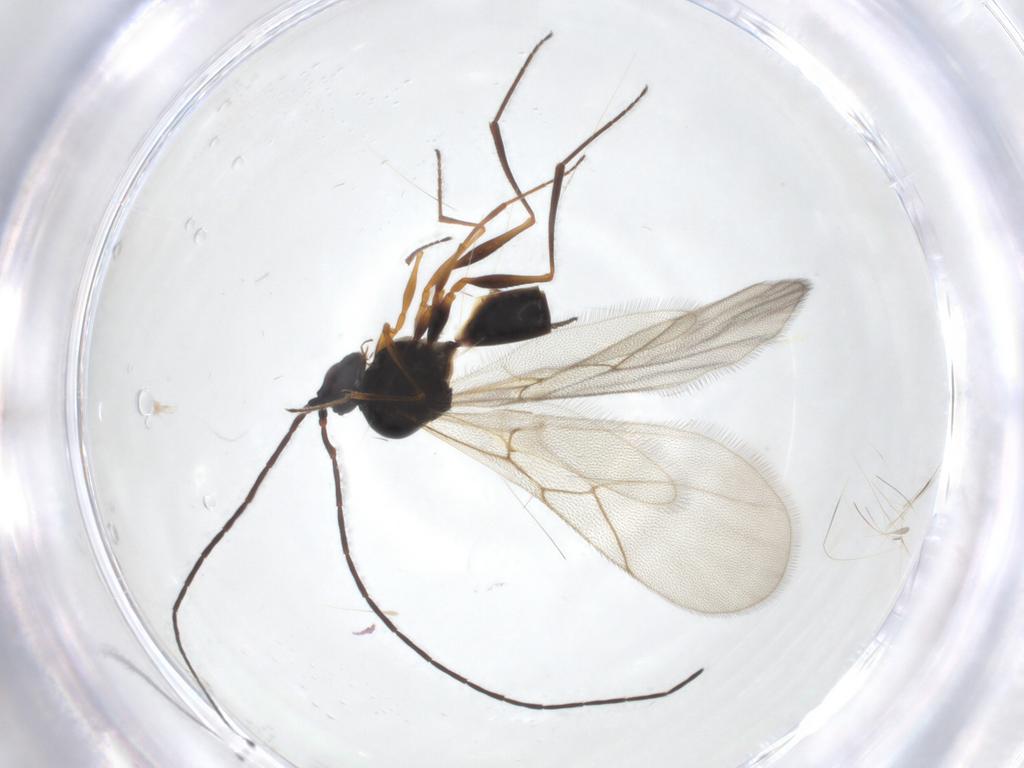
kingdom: Animalia
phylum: Arthropoda
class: Insecta
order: Hymenoptera
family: Figitidae
